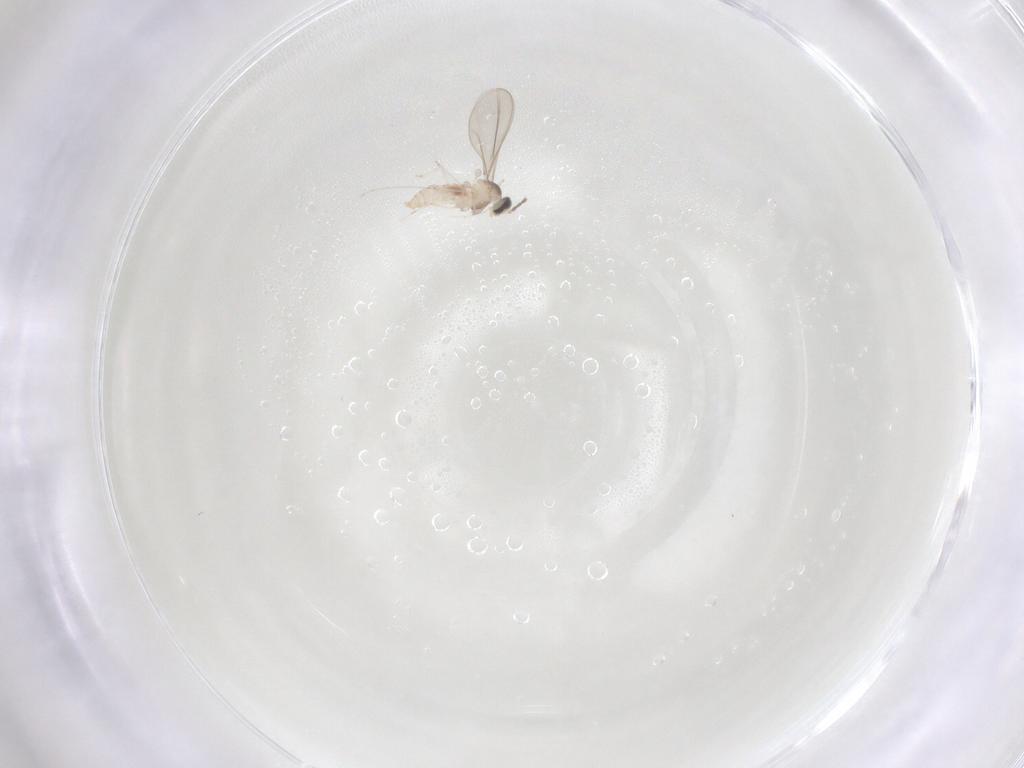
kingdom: Animalia
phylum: Arthropoda
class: Insecta
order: Diptera
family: Cecidomyiidae
